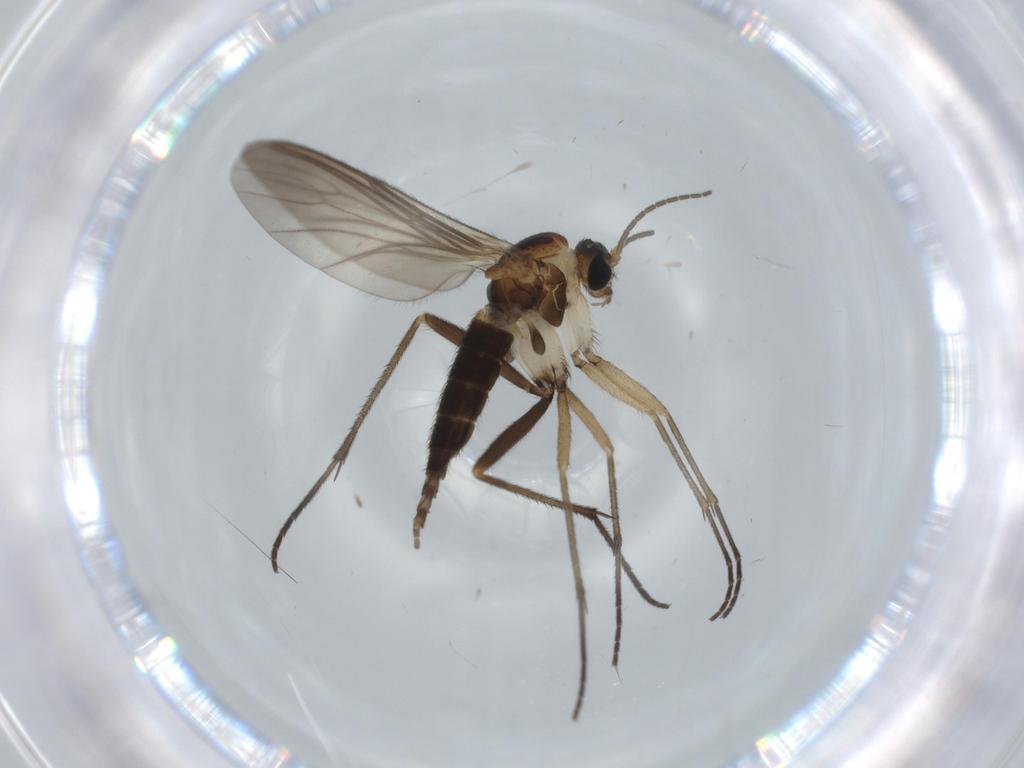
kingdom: Animalia
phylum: Arthropoda
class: Insecta
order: Diptera
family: Sciaridae
